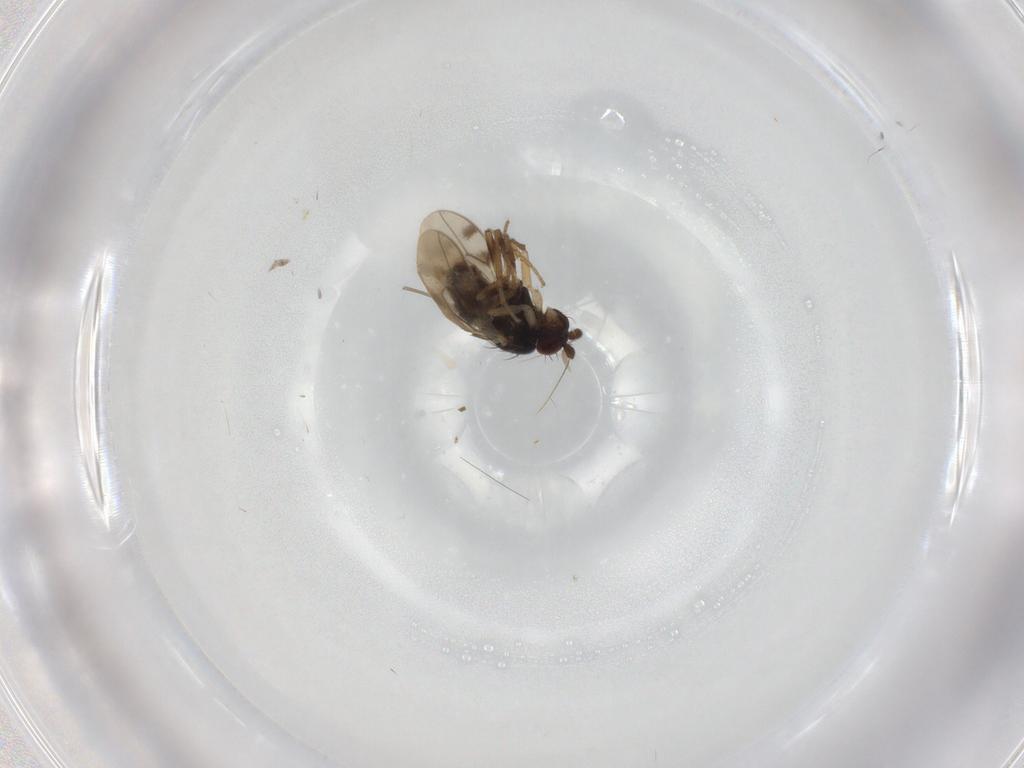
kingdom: Animalia
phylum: Arthropoda
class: Insecta
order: Diptera
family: Sphaeroceridae
